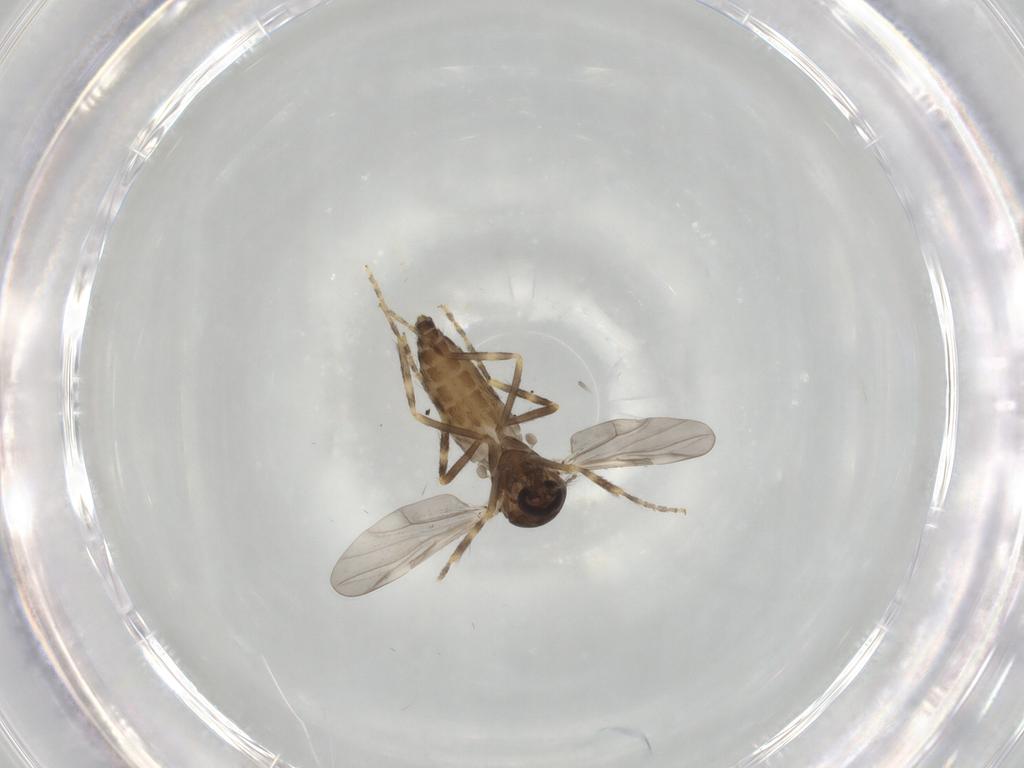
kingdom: Animalia
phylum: Arthropoda
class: Insecta
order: Diptera
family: Ceratopogonidae
